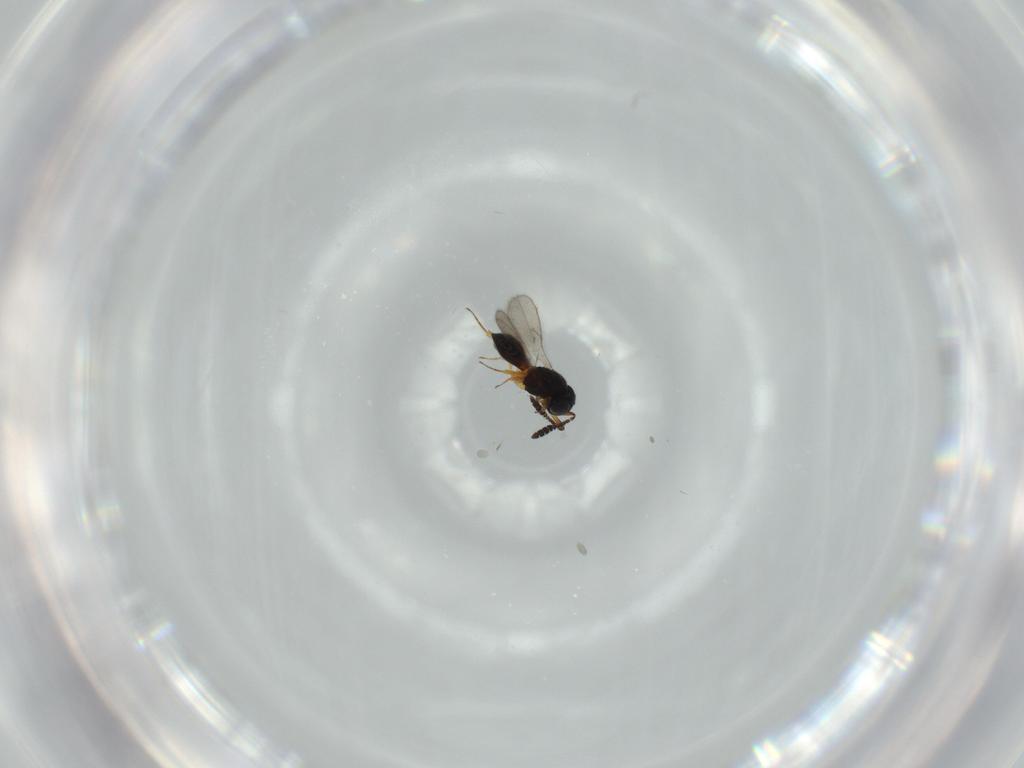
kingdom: Animalia
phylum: Arthropoda
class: Insecta
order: Hymenoptera
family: Scelionidae
